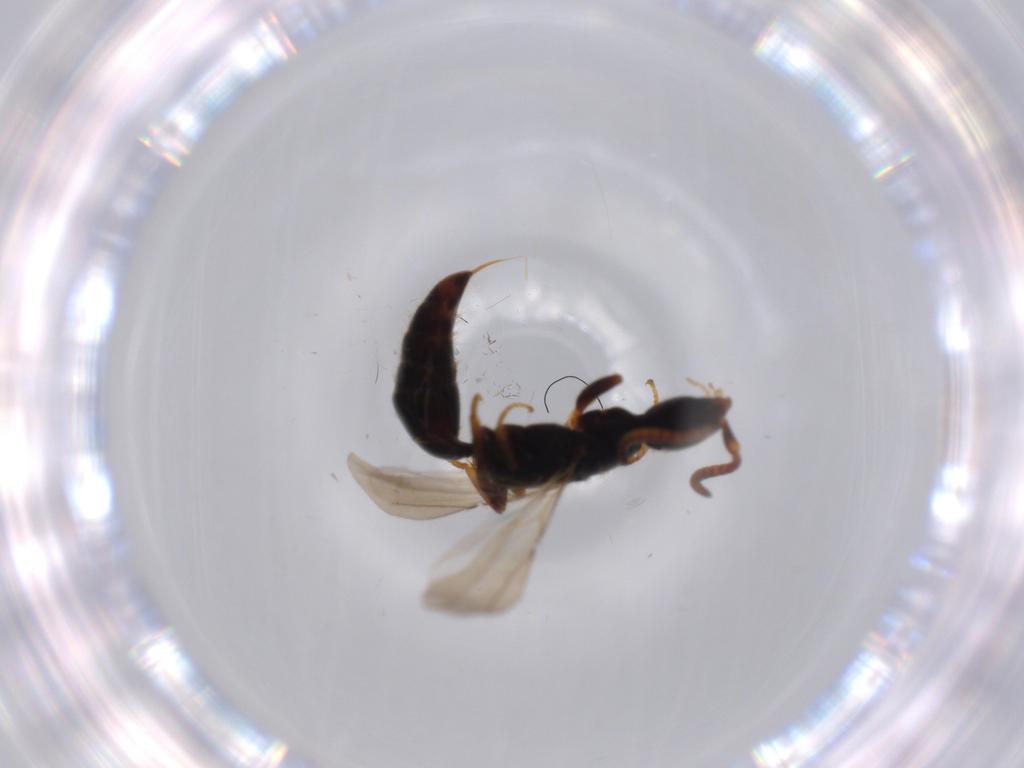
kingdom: Animalia
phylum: Arthropoda
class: Insecta
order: Hymenoptera
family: Bethylidae
